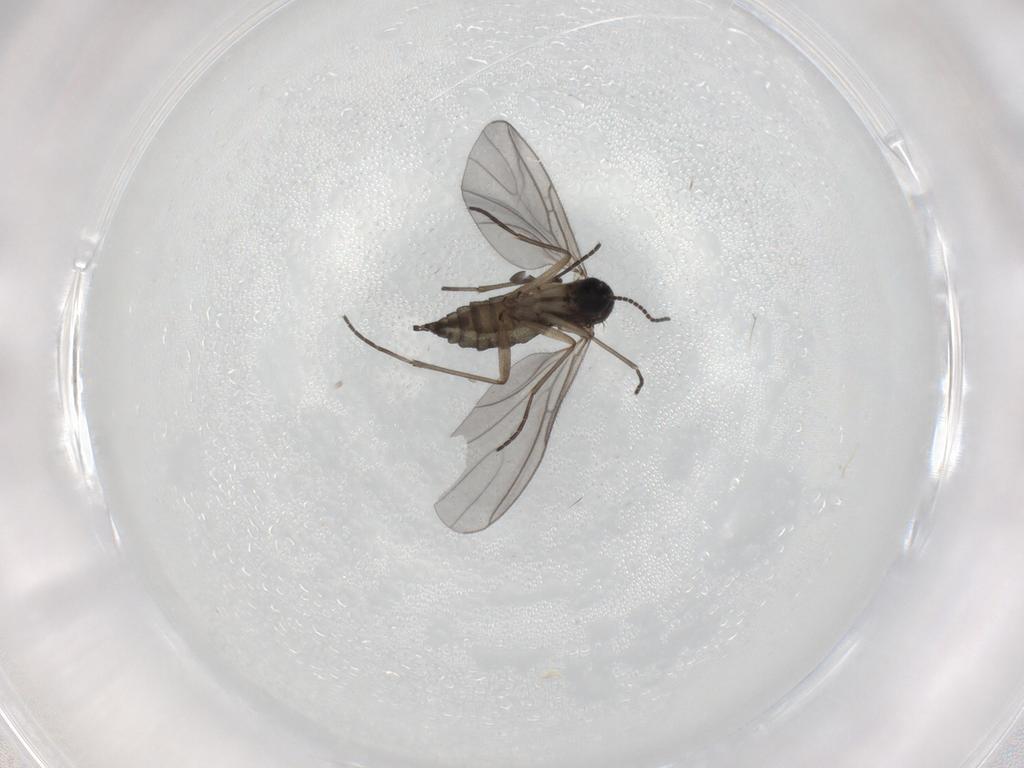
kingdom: Animalia
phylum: Arthropoda
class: Insecta
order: Diptera
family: Sciaridae
